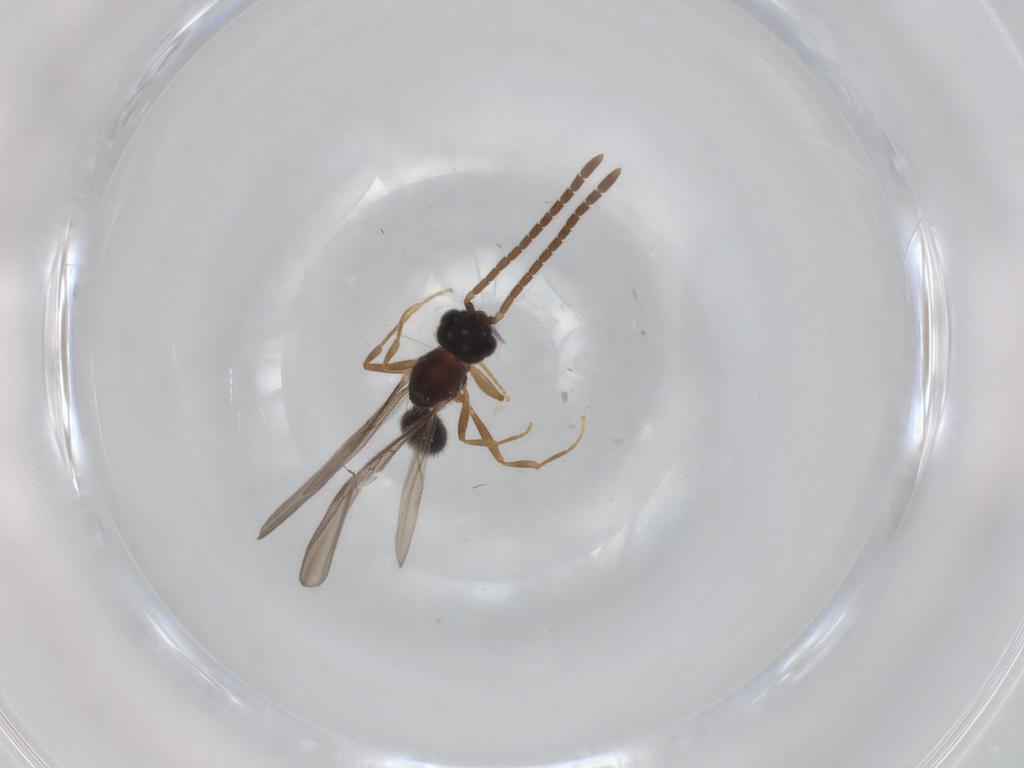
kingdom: Animalia
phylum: Arthropoda
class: Insecta
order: Hymenoptera
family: Formicidae
